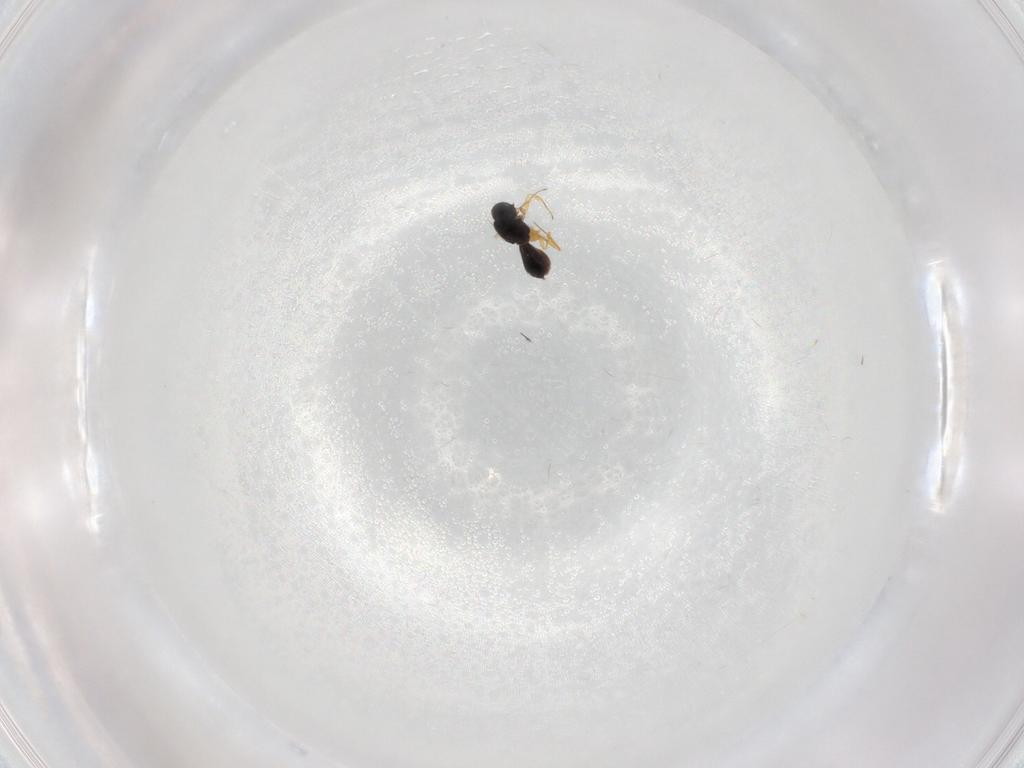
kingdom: Animalia
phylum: Arthropoda
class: Insecta
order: Hymenoptera
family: Scelionidae
